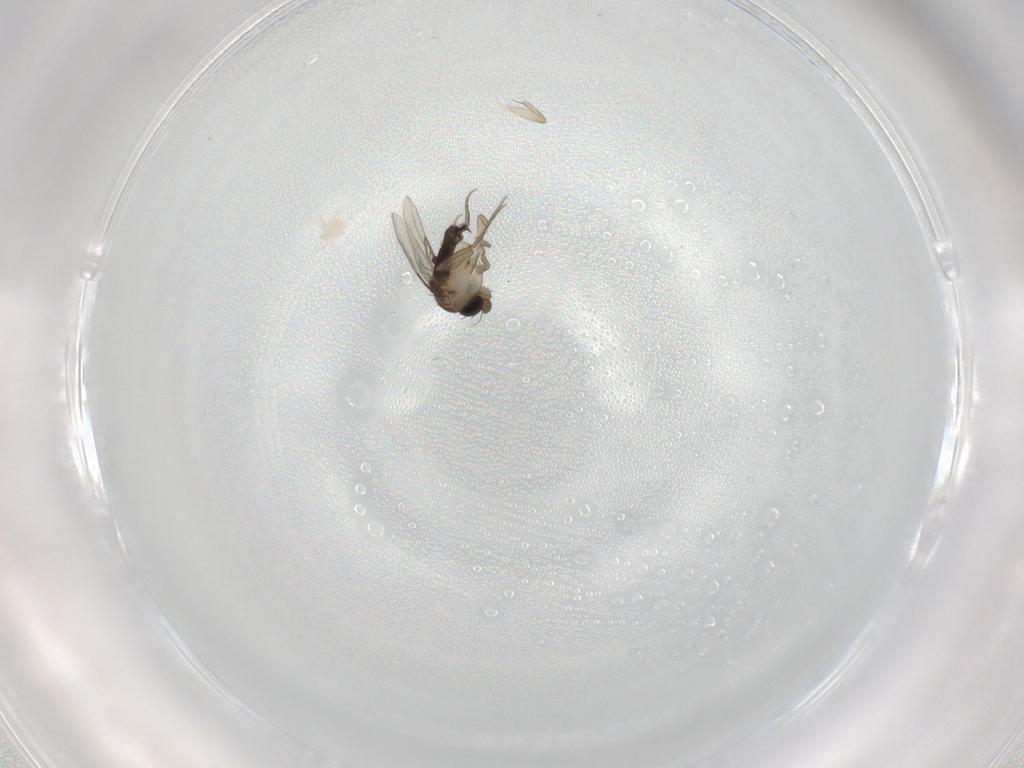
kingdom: Animalia
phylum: Arthropoda
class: Insecta
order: Diptera
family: Phoridae
